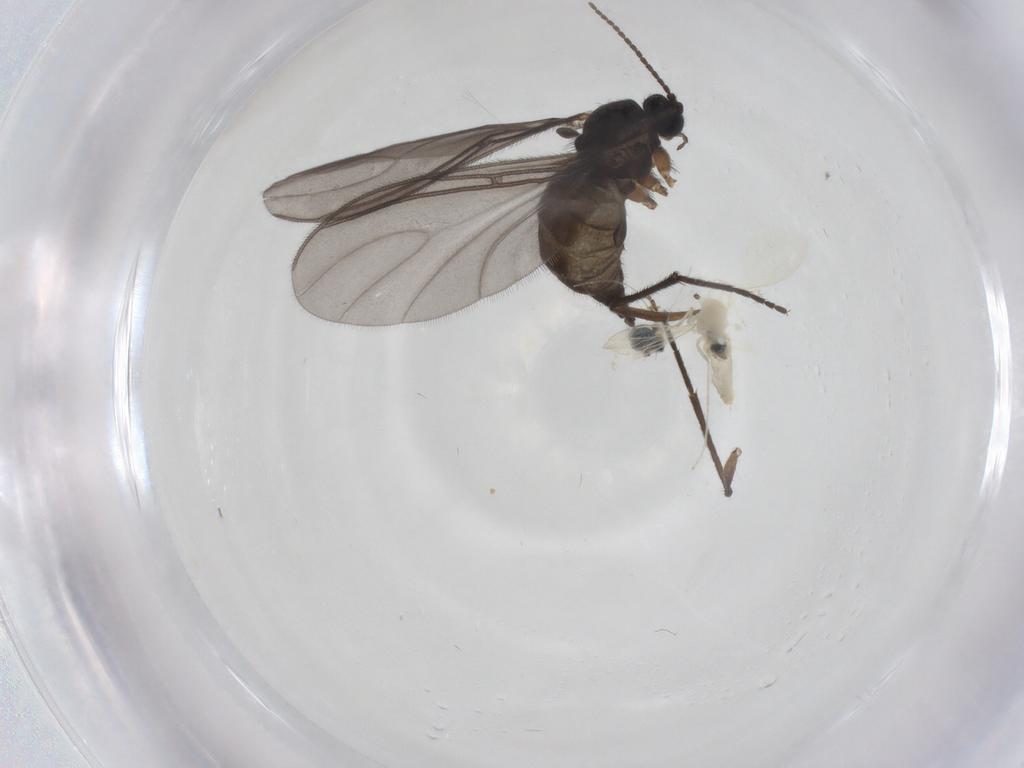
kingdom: Animalia
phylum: Arthropoda
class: Insecta
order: Diptera
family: Sciaridae
